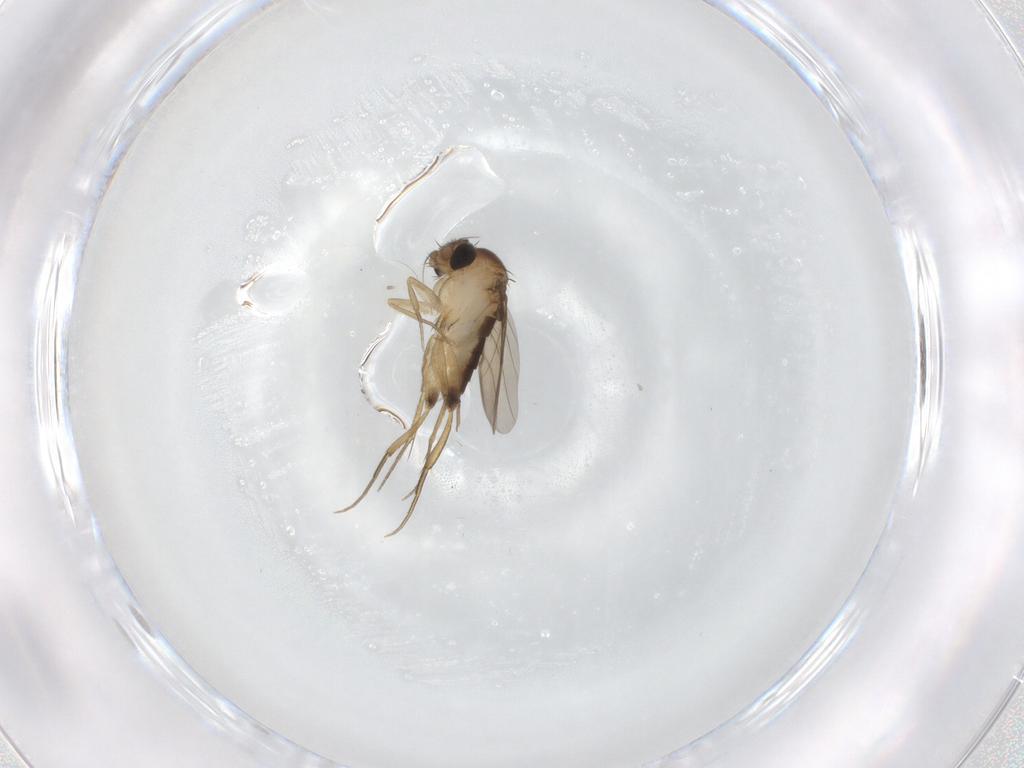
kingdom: Animalia
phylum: Arthropoda
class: Insecta
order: Diptera
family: Phoridae
